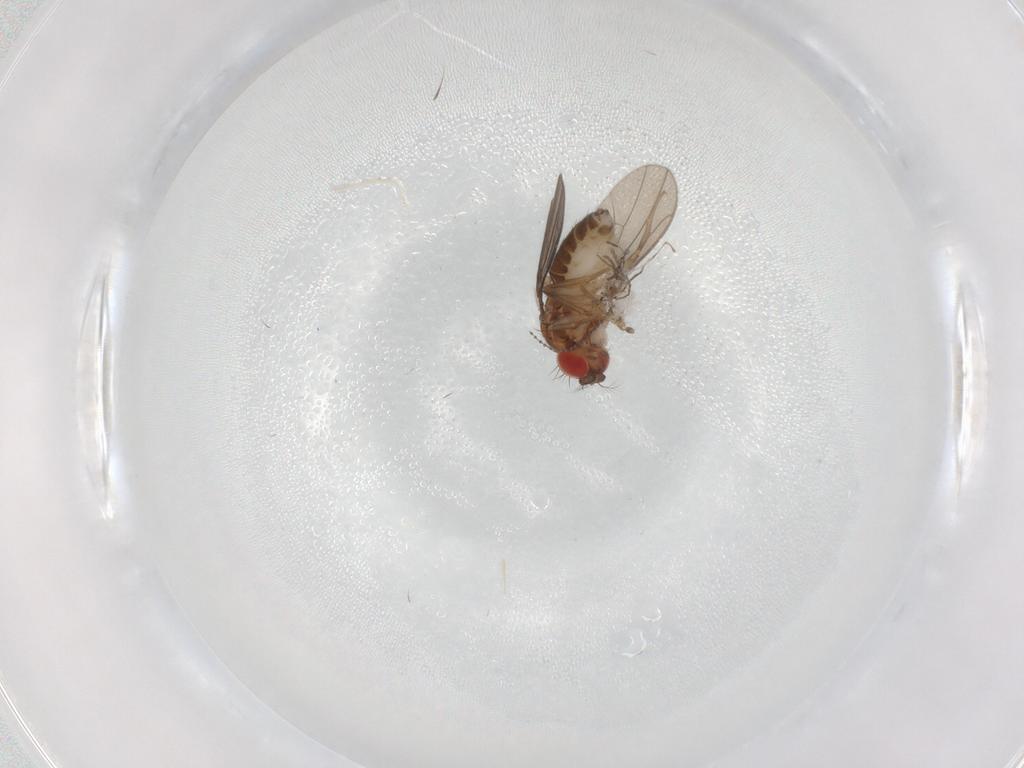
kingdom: Animalia
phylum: Arthropoda
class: Insecta
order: Diptera
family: Drosophilidae
